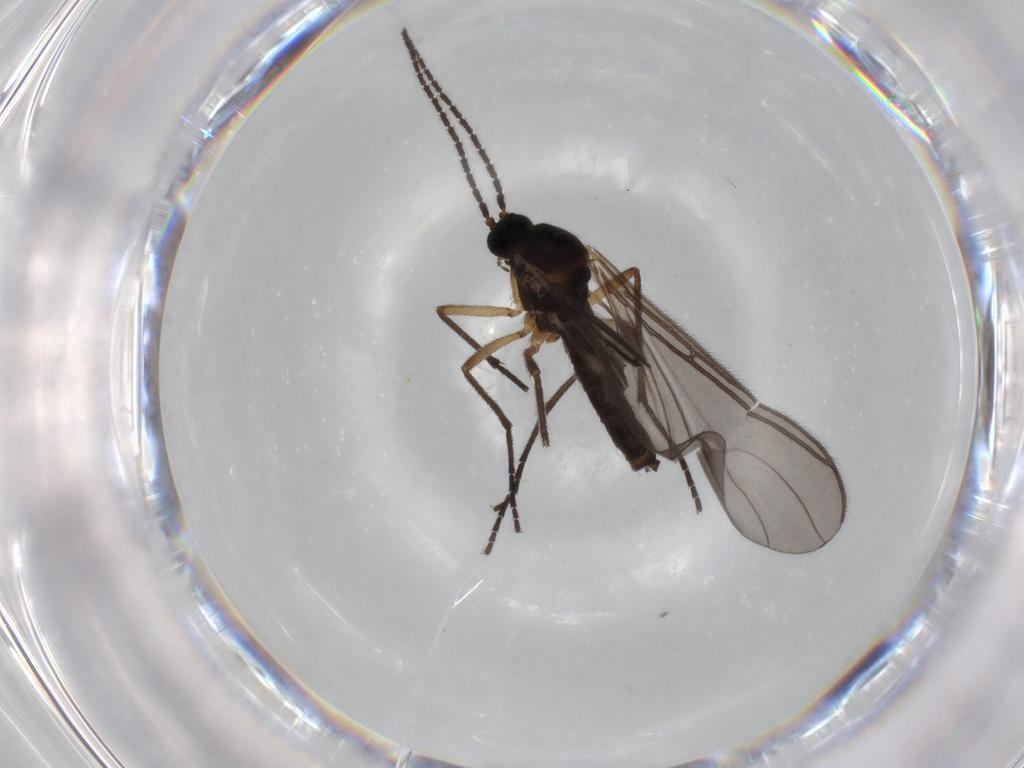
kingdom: Animalia
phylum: Arthropoda
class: Insecta
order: Diptera
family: Sciaridae
